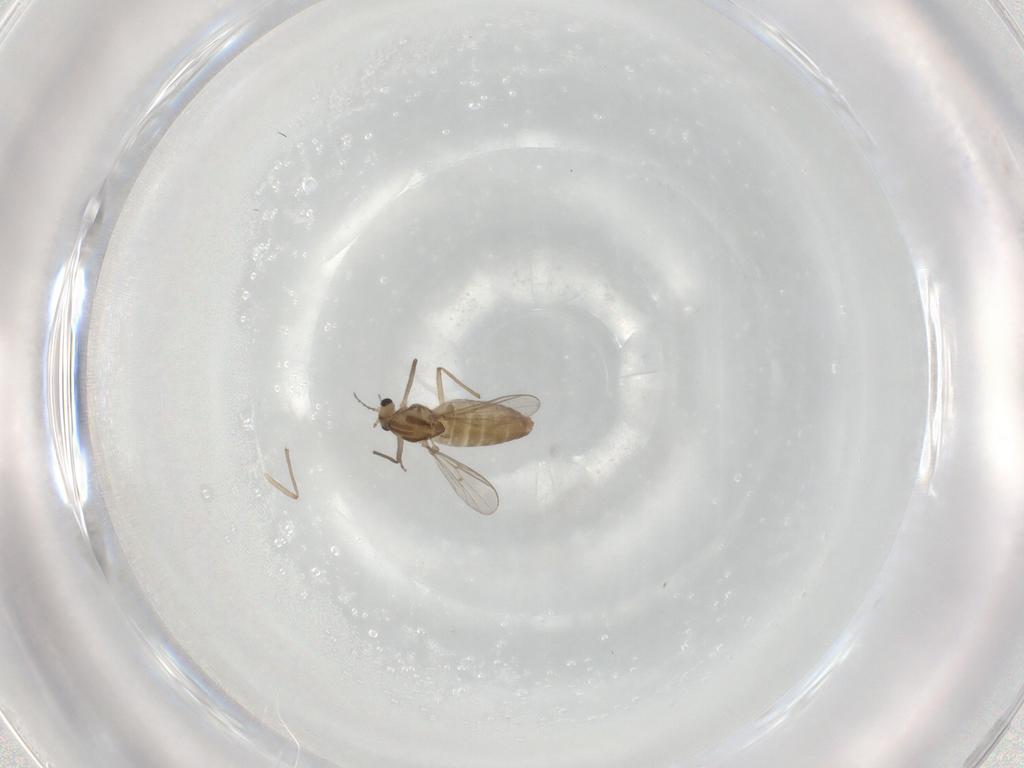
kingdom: Animalia
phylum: Arthropoda
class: Insecta
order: Diptera
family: Chironomidae
